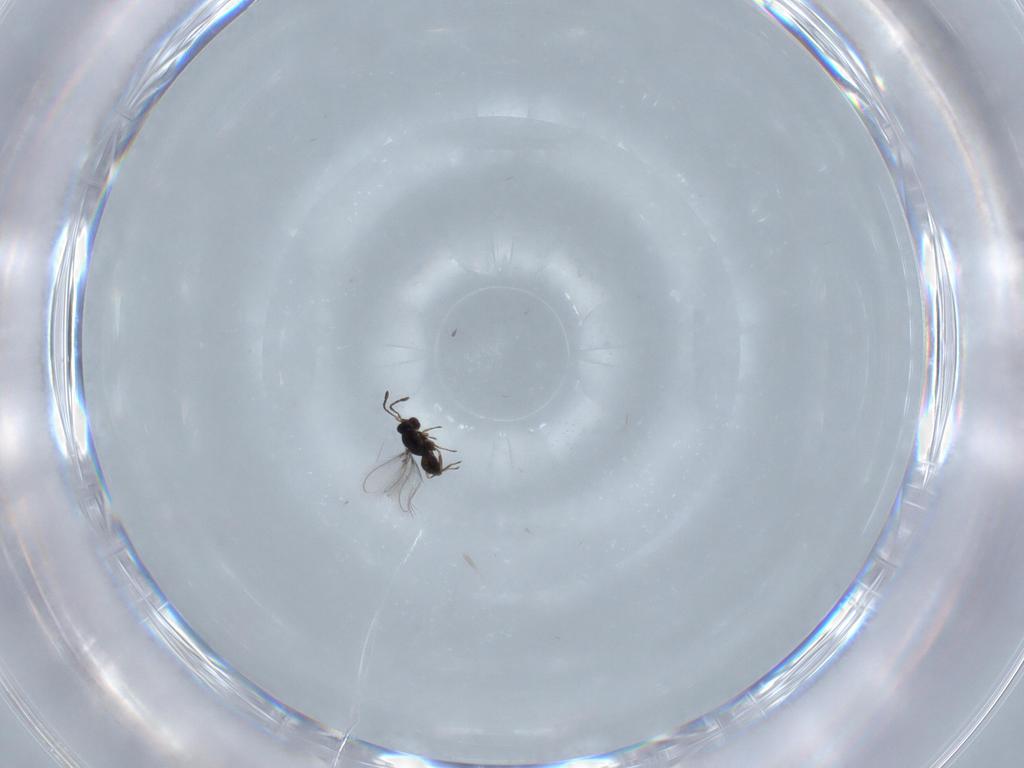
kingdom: Animalia
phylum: Arthropoda
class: Insecta
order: Hymenoptera
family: Mymaridae
